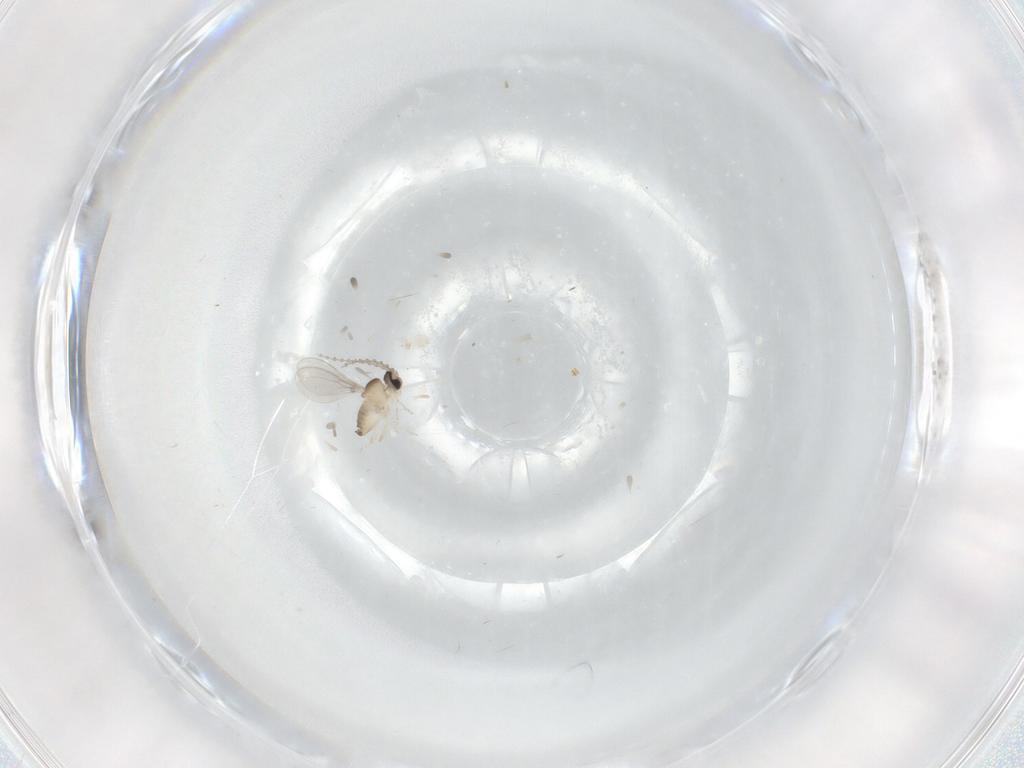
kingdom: Animalia
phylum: Arthropoda
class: Insecta
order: Diptera
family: Cecidomyiidae
